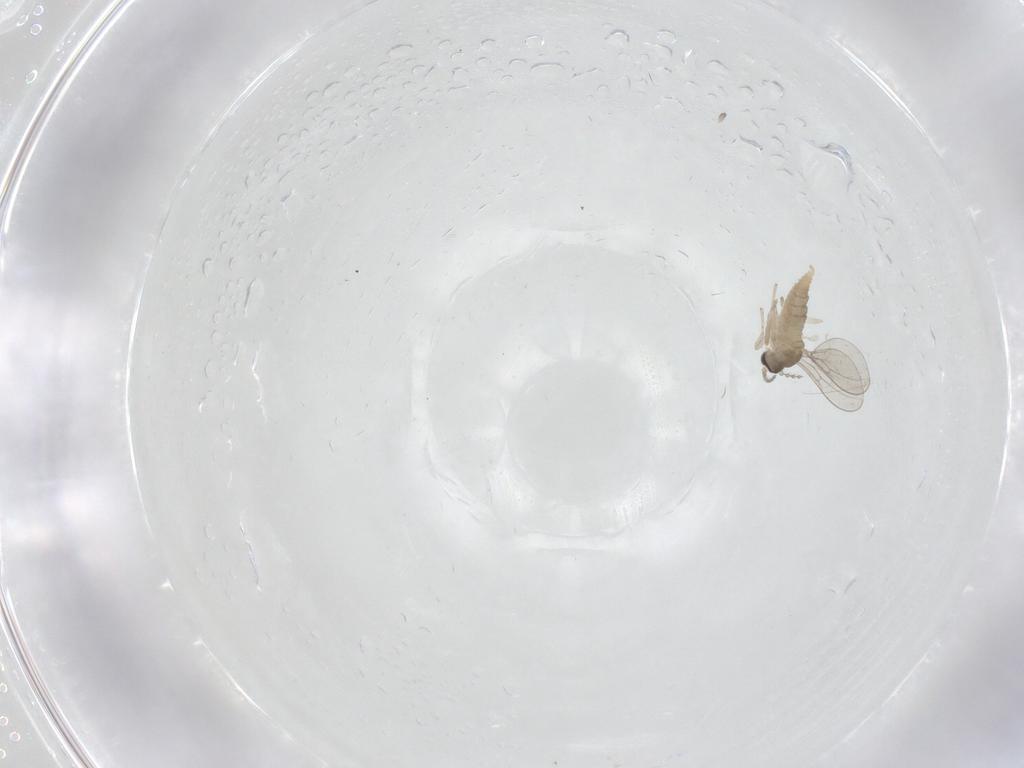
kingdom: Animalia
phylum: Arthropoda
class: Insecta
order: Diptera
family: Cecidomyiidae
